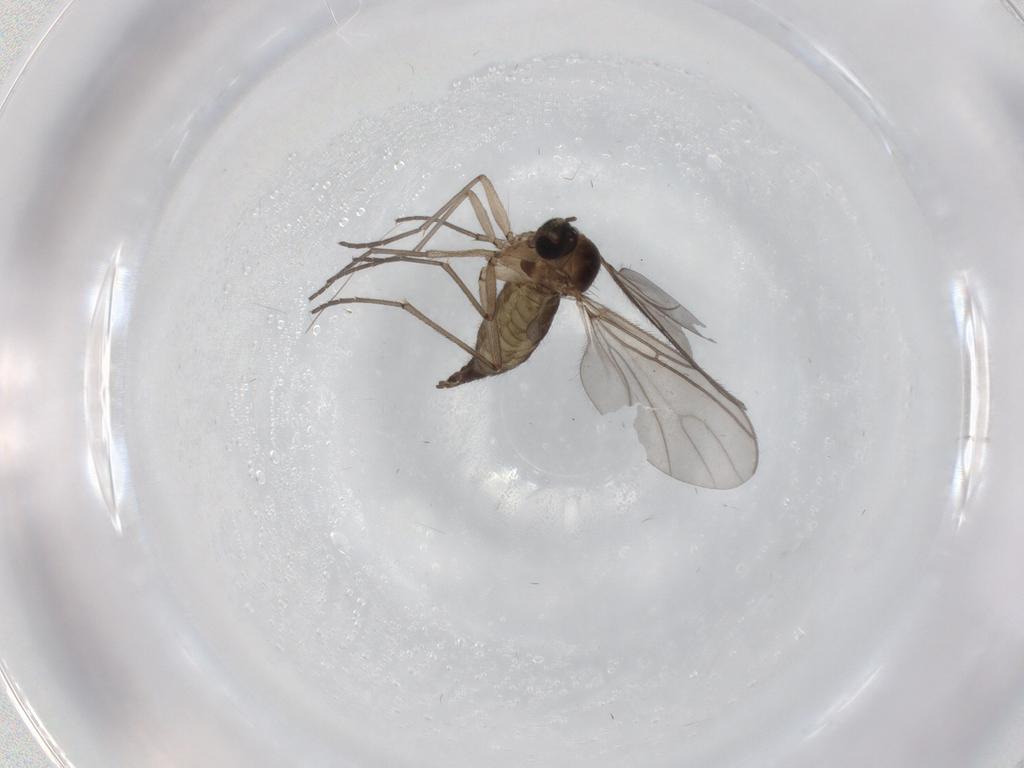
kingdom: Animalia
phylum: Arthropoda
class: Insecta
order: Diptera
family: Chironomidae
